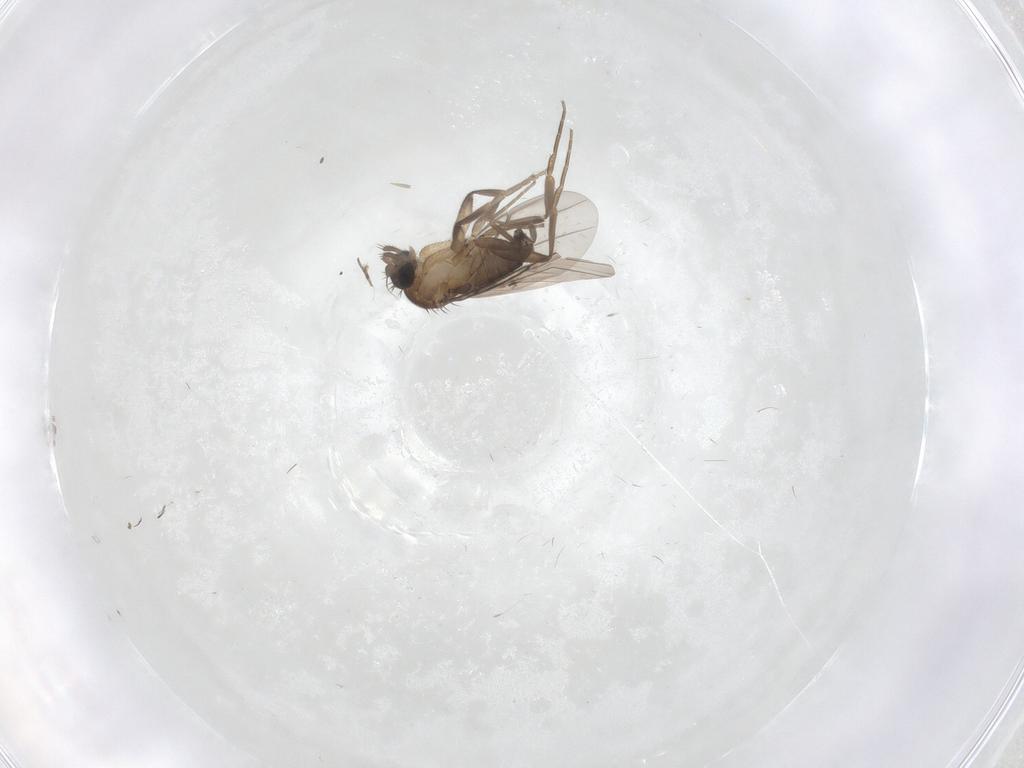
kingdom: Animalia
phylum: Arthropoda
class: Insecta
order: Diptera
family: Phoridae
